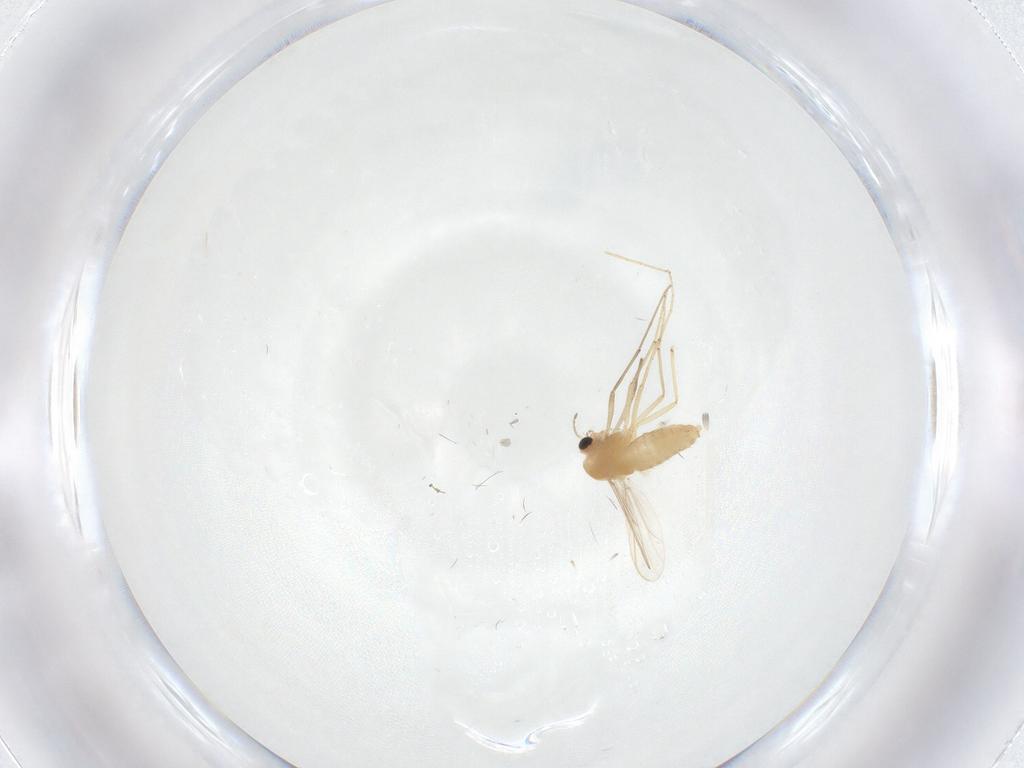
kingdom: Animalia
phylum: Arthropoda
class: Insecta
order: Diptera
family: Chironomidae
